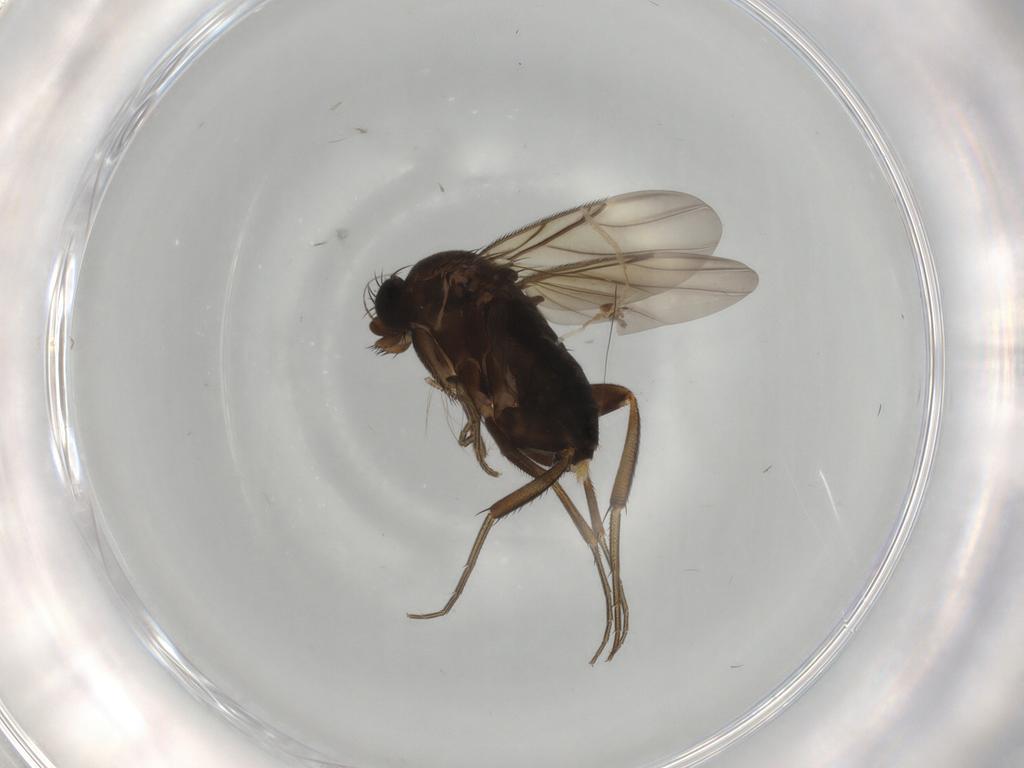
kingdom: Animalia
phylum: Arthropoda
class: Insecta
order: Diptera
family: Phoridae
